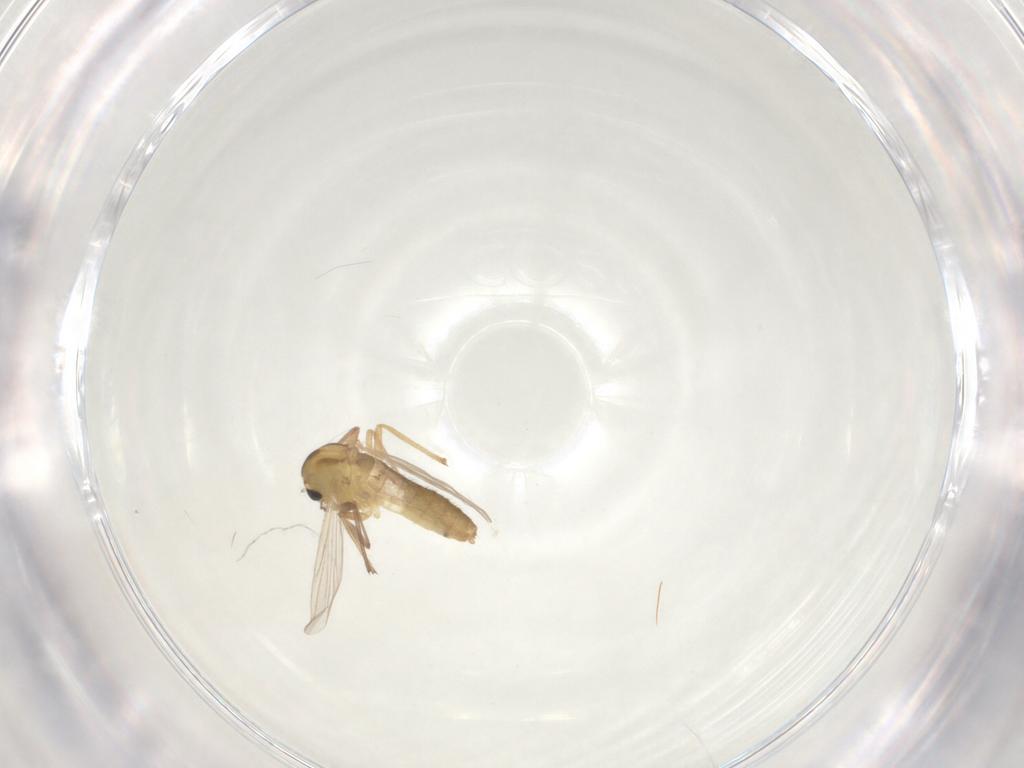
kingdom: Animalia
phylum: Arthropoda
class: Insecta
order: Diptera
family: Chironomidae
